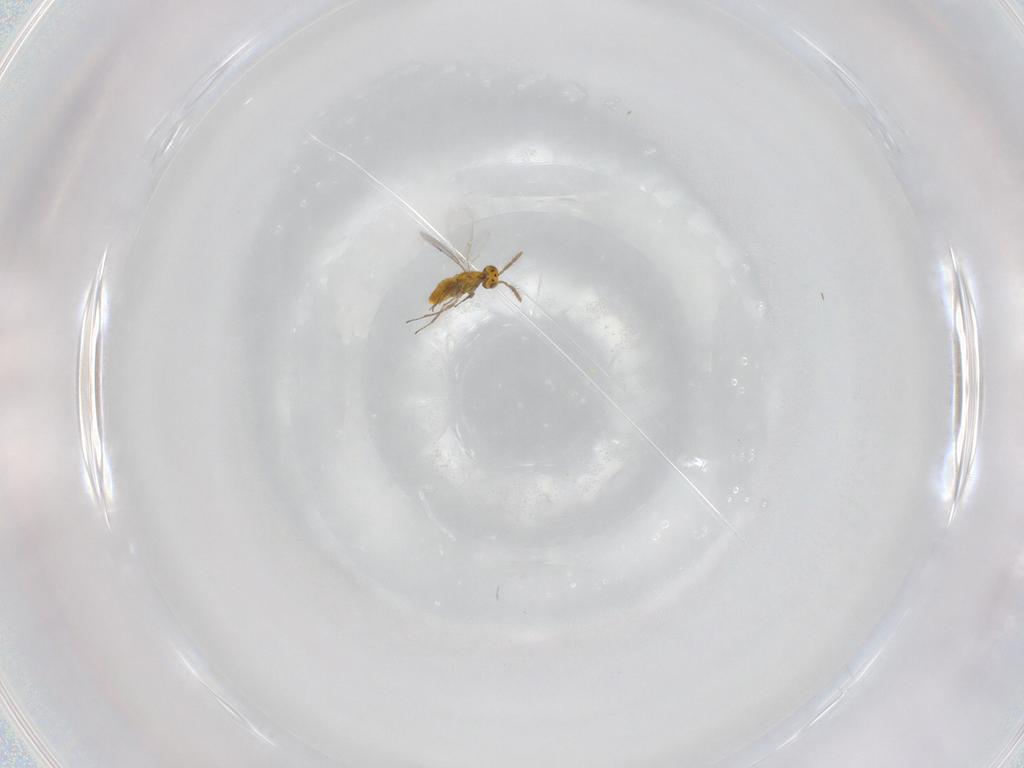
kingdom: Animalia
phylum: Arthropoda
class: Insecta
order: Hymenoptera
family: Aphelinidae
